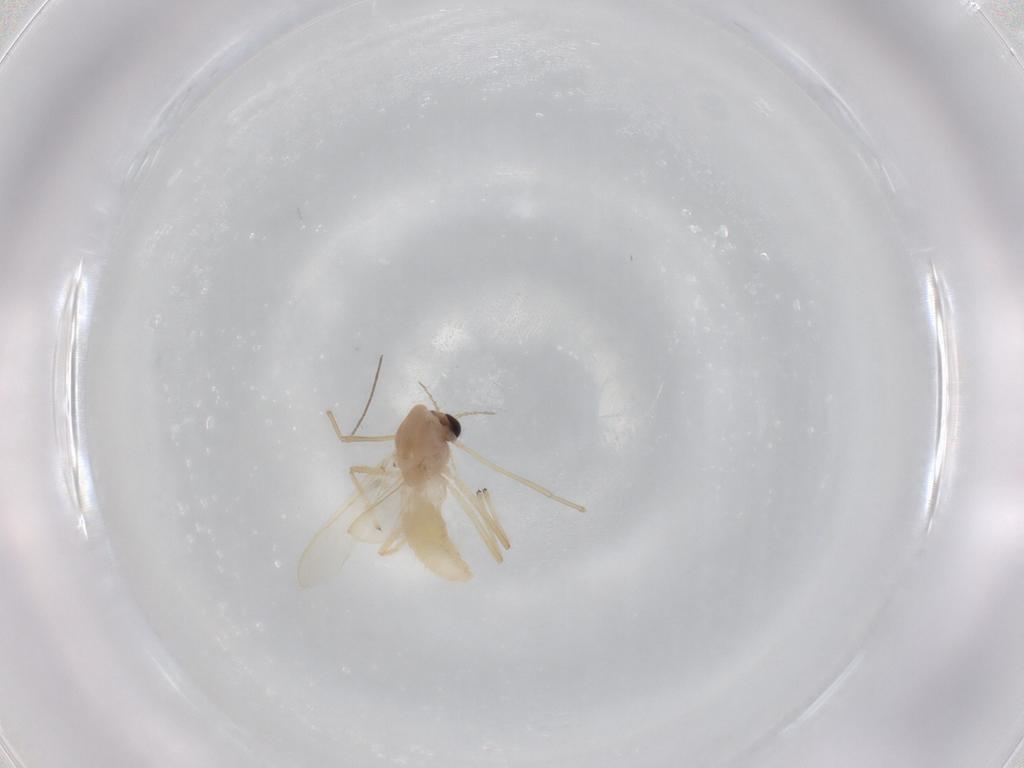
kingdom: Animalia
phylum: Arthropoda
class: Insecta
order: Diptera
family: Chironomidae
